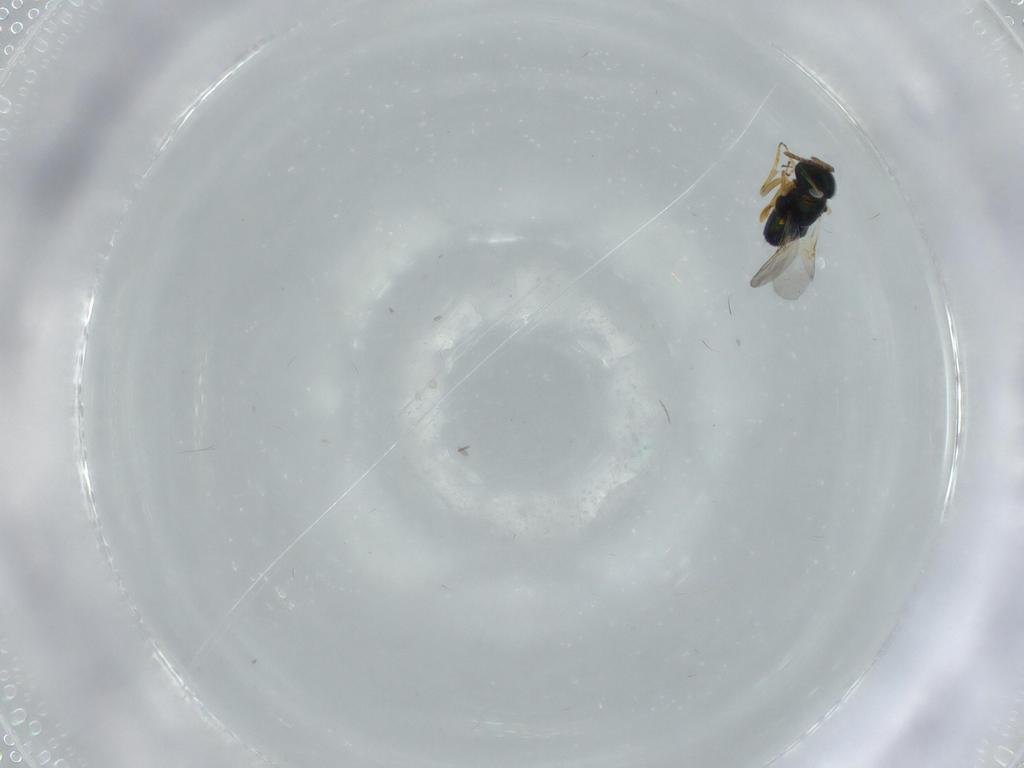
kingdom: Animalia
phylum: Arthropoda
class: Insecta
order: Hymenoptera
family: Encyrtidae
